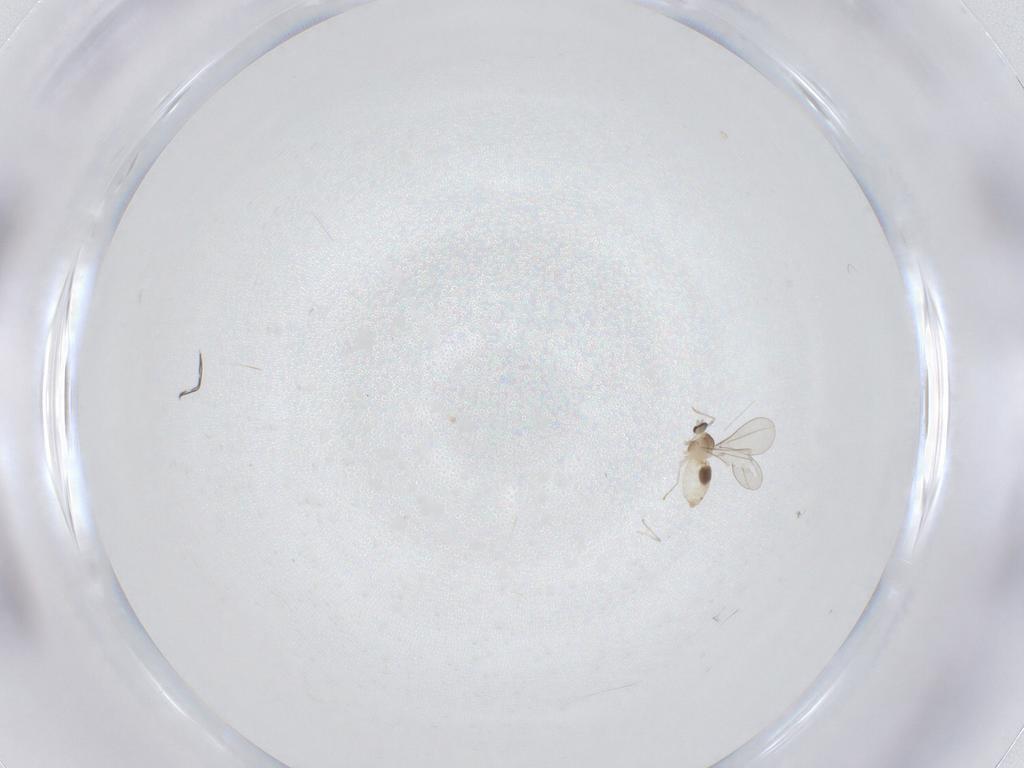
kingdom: Animalia
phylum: Arthropoda
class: Insecta
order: Diptera
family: Cecidomyiidae
